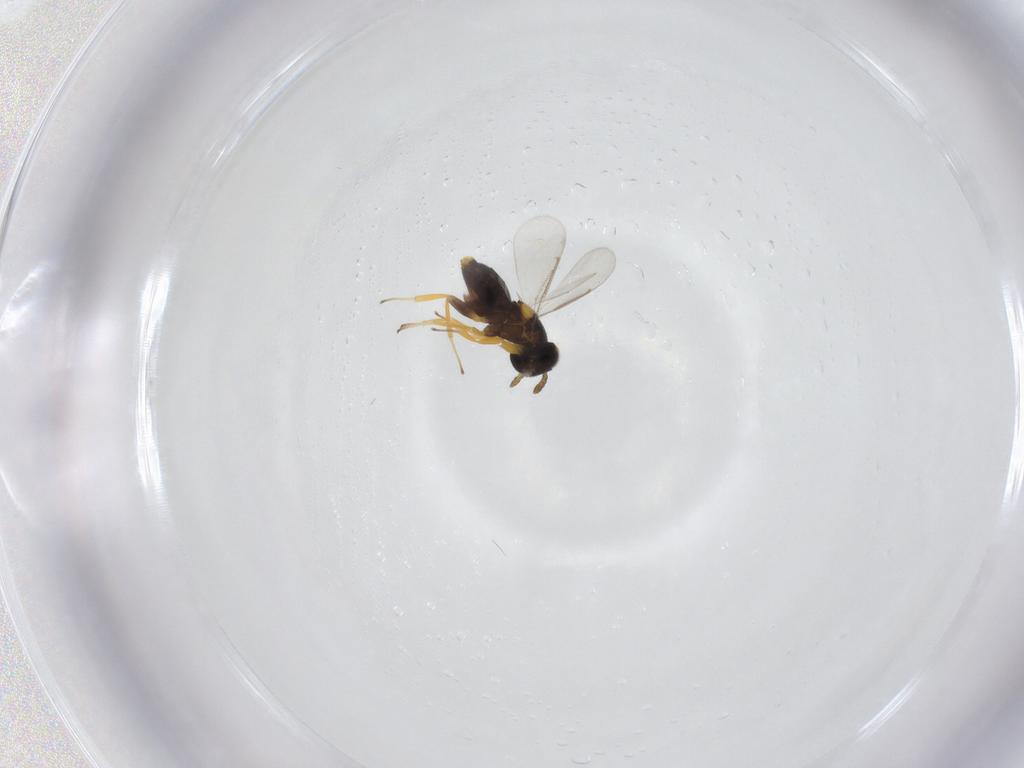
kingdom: Animalia
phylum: Arthropoda
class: Insecta
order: Hymenoptera
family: Aphelinidae
